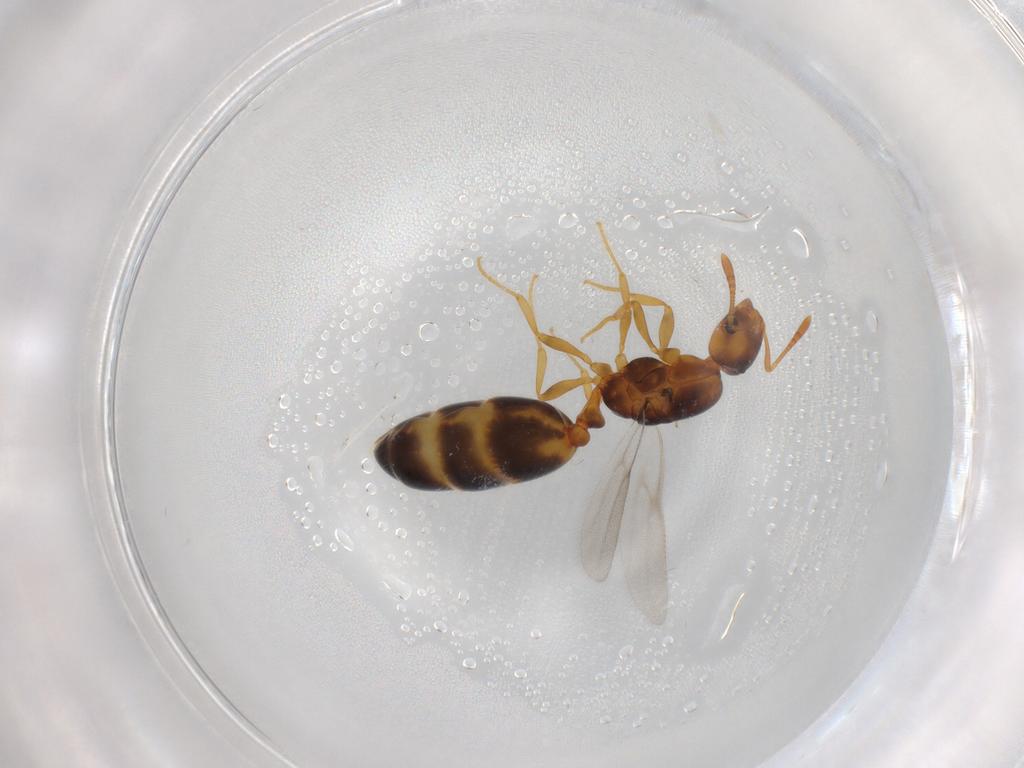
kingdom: Animalia
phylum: Arthropoda
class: Insecta
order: Hymenoptera
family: Formicidae
